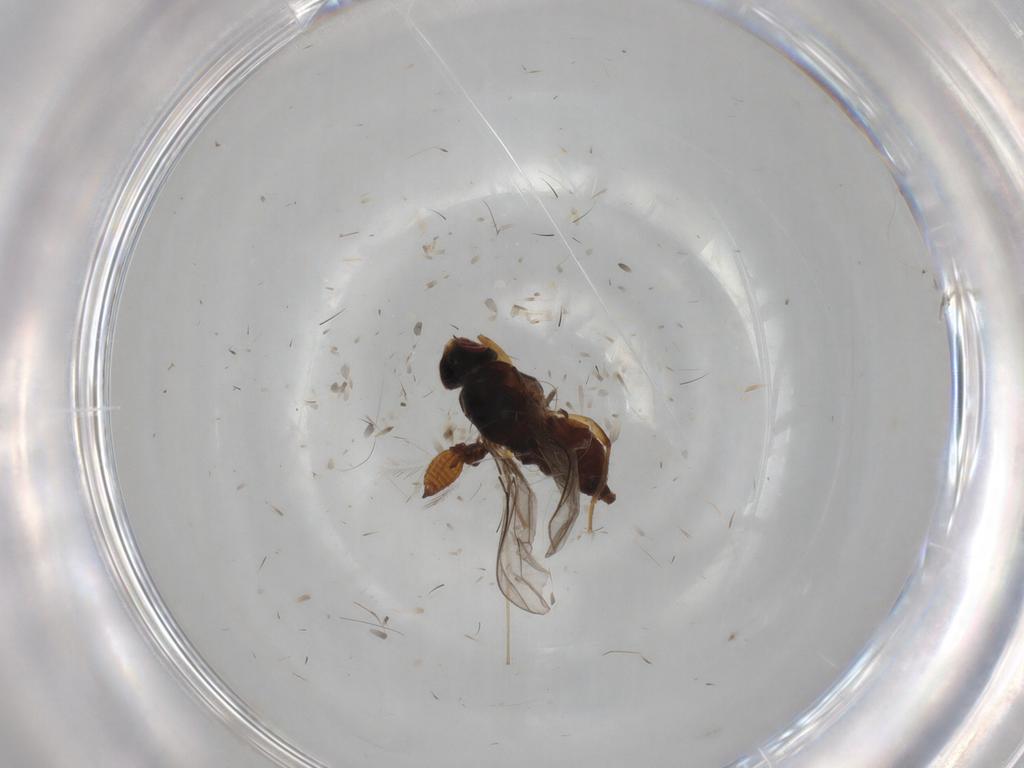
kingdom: Animalia
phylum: Arthropoda
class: Insecta
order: Diptera
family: Chloropidae
